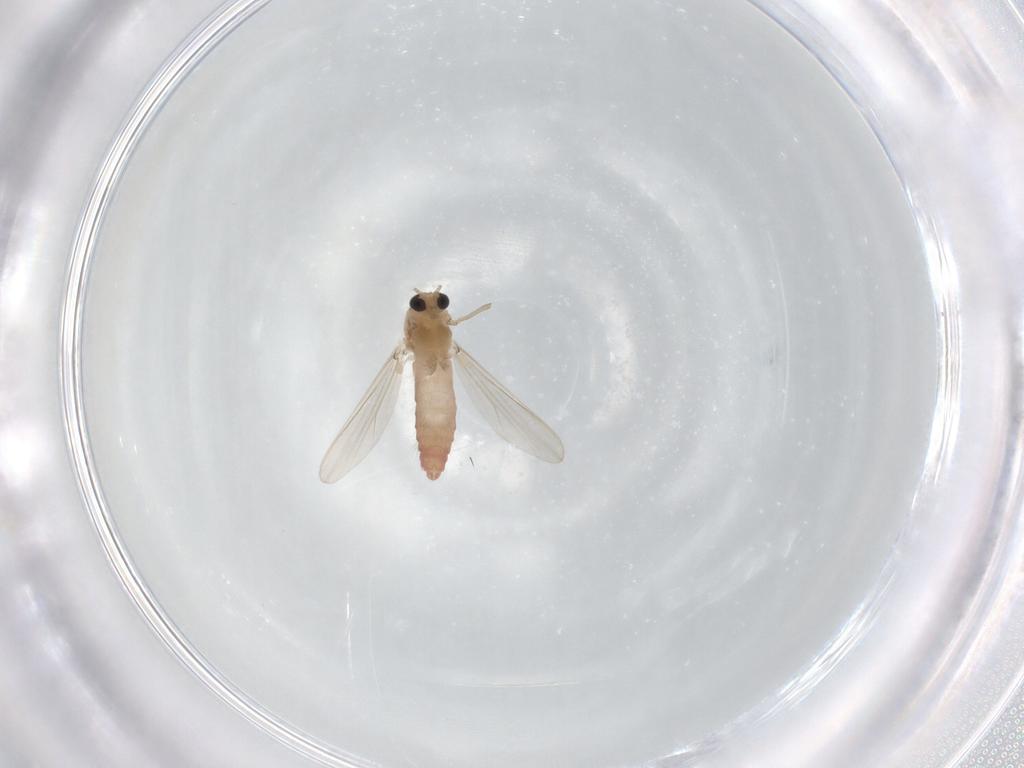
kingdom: Animalia
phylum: Arthropoda
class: Insecta
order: Diptera
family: Chironomidae
